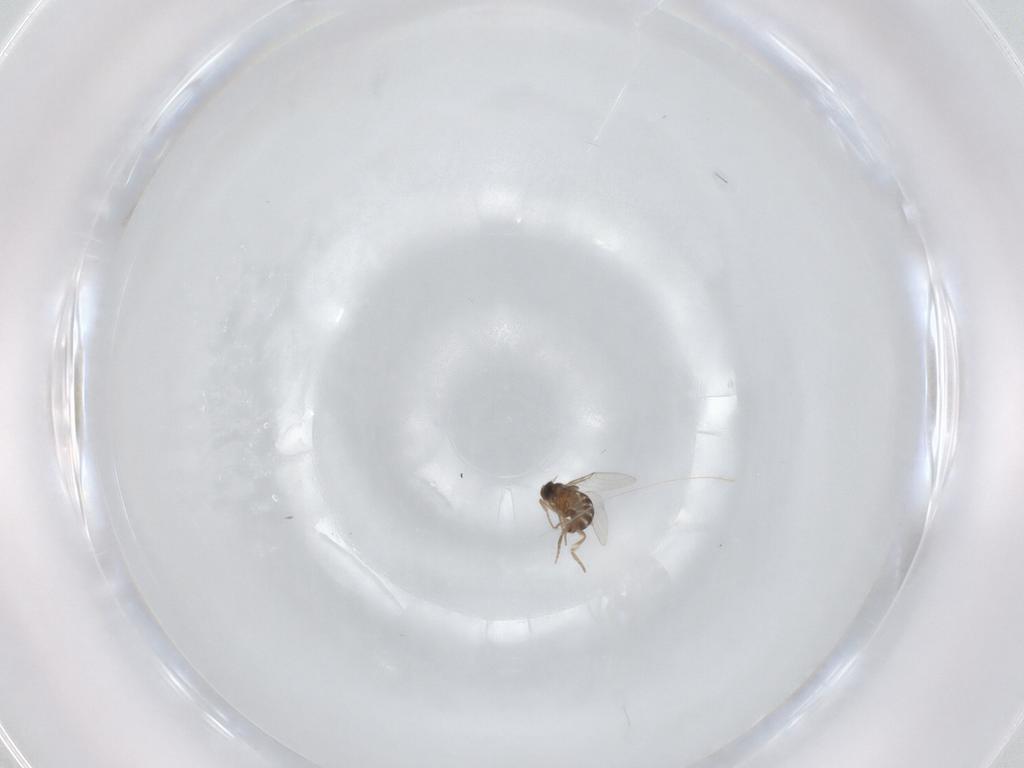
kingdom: Animalia
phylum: Arthropoda
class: Insecta
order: Diptera
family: Phoridae
